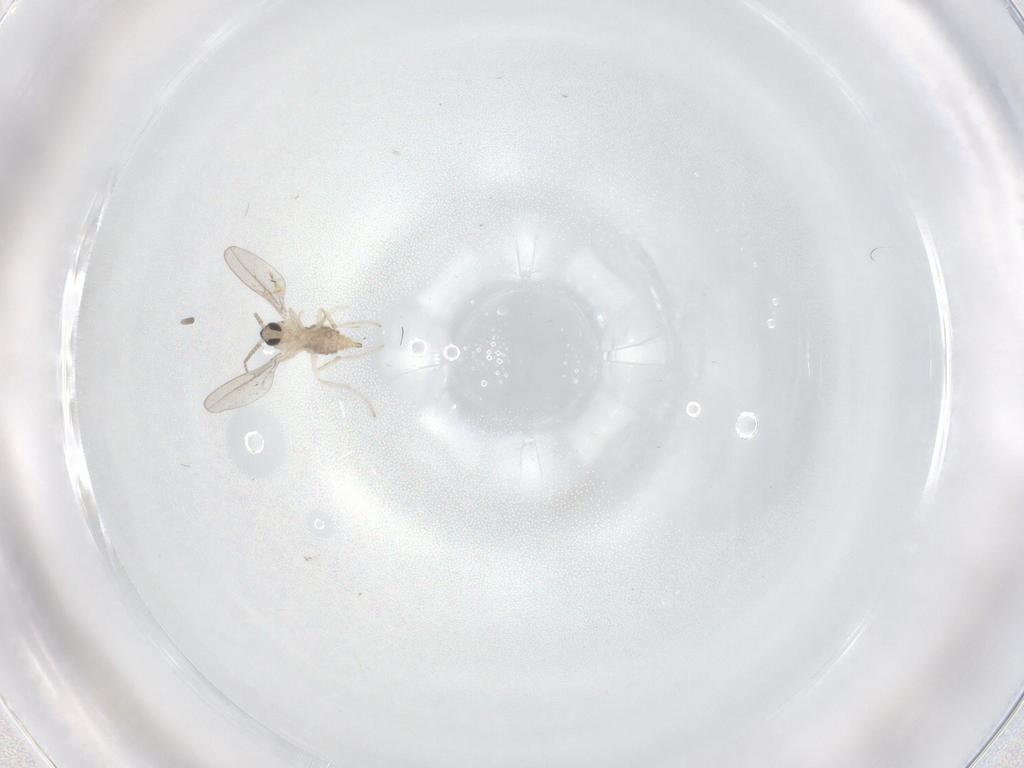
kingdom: Animalia
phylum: Arthropoda
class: Insecta
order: Diptera
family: Cecidomyiidae
